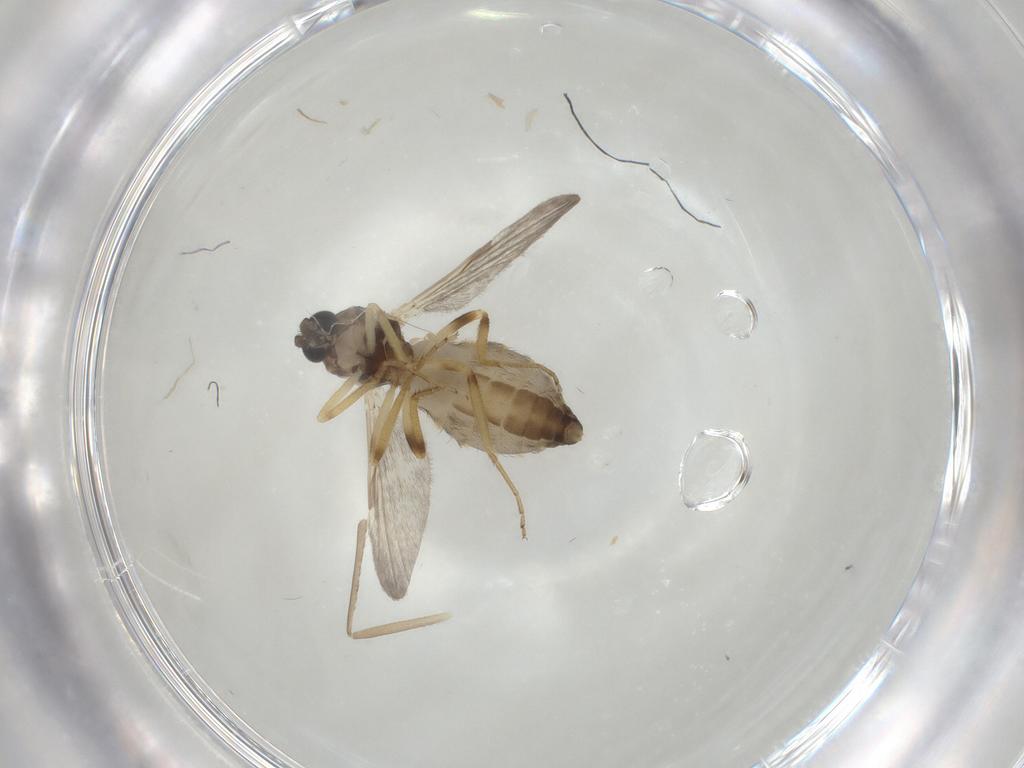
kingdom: Animalia
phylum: Arthropoda
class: Insecta
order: Diptera
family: Ceratopogonidae
